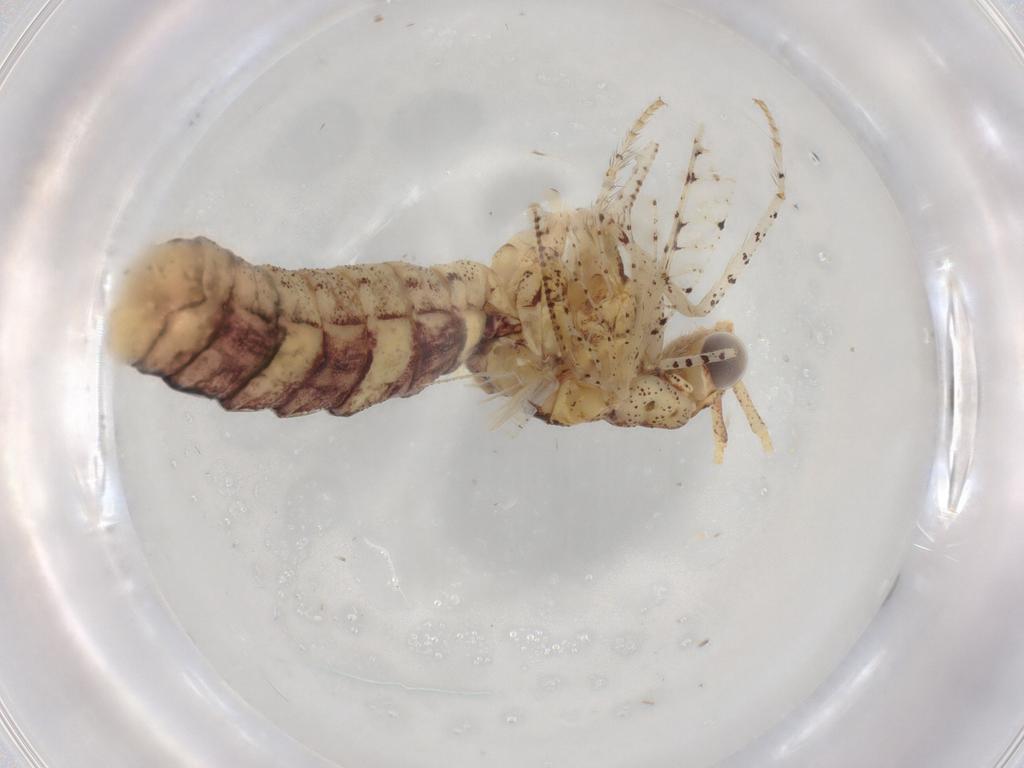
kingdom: Animalia
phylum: Arthropoda
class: Insecta
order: Neuroptera
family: Berothidae
